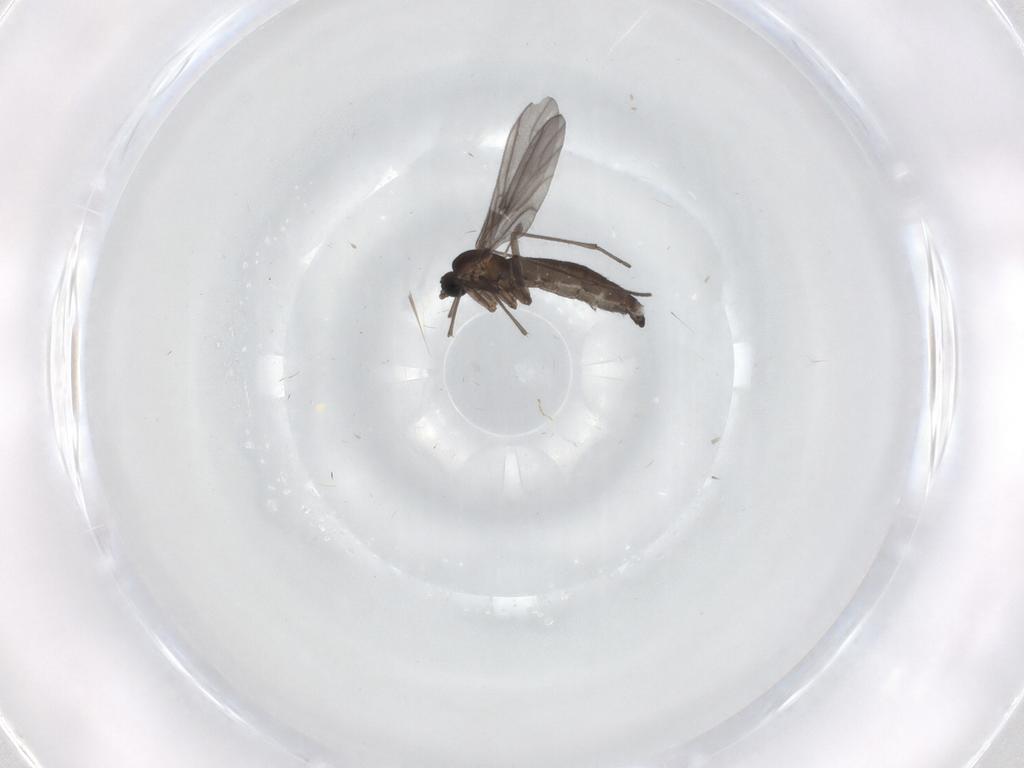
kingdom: Animalia
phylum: Arthropoda
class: Insecta
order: Diptera
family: Sciaridae
